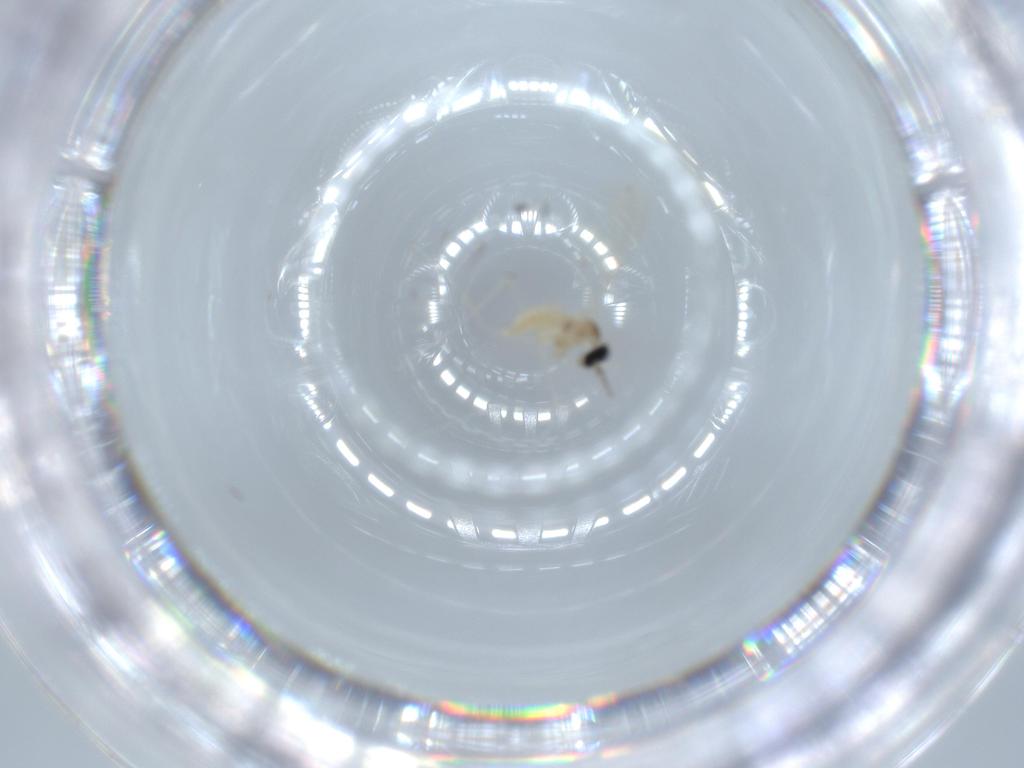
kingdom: Animalia
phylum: Arthropoda
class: Insecta
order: Diptera
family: Cecidomyiidae
